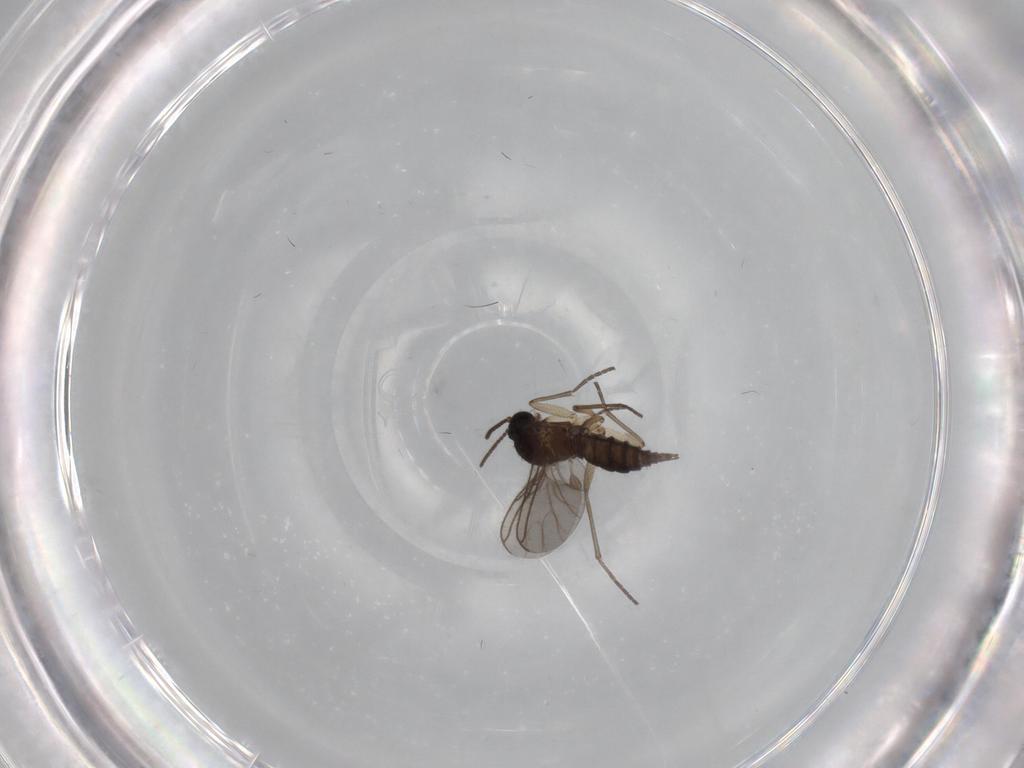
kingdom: Animalia
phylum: Arthropoda
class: Insecta
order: Diptera
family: Sciaridae
